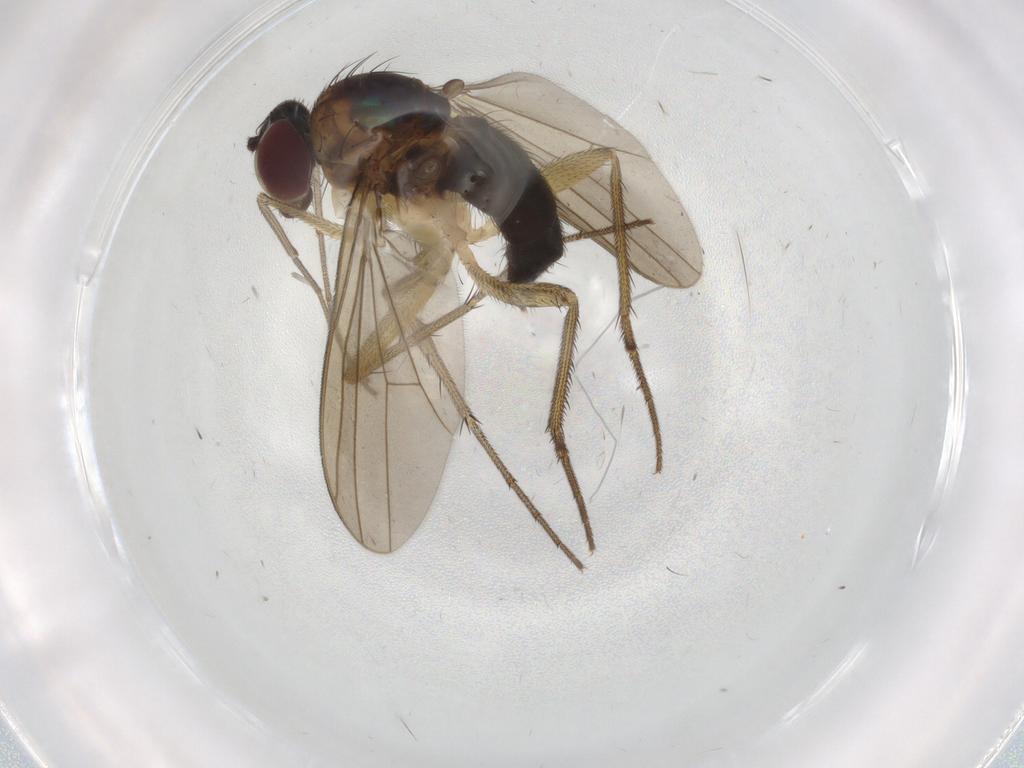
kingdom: Animalia
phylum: Arthropoda
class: Insecta
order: Diptera
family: Dolichopodidae
